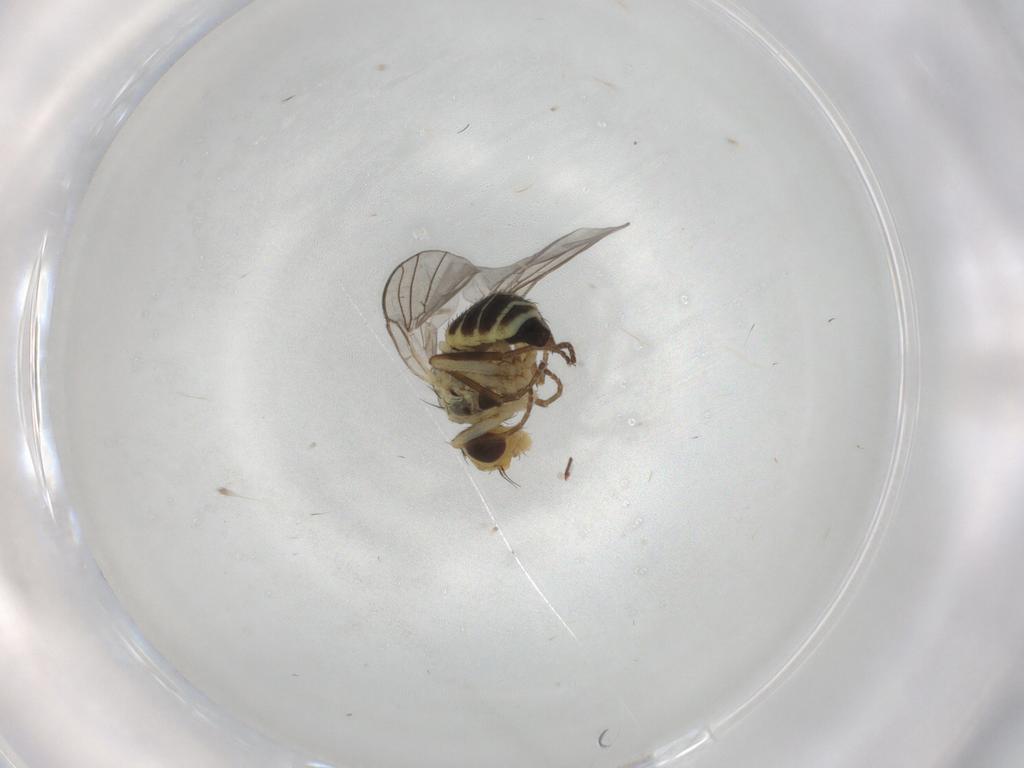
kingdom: Animalia
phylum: Arthropoda
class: Insecta
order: Diptera
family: Agromyzidae
